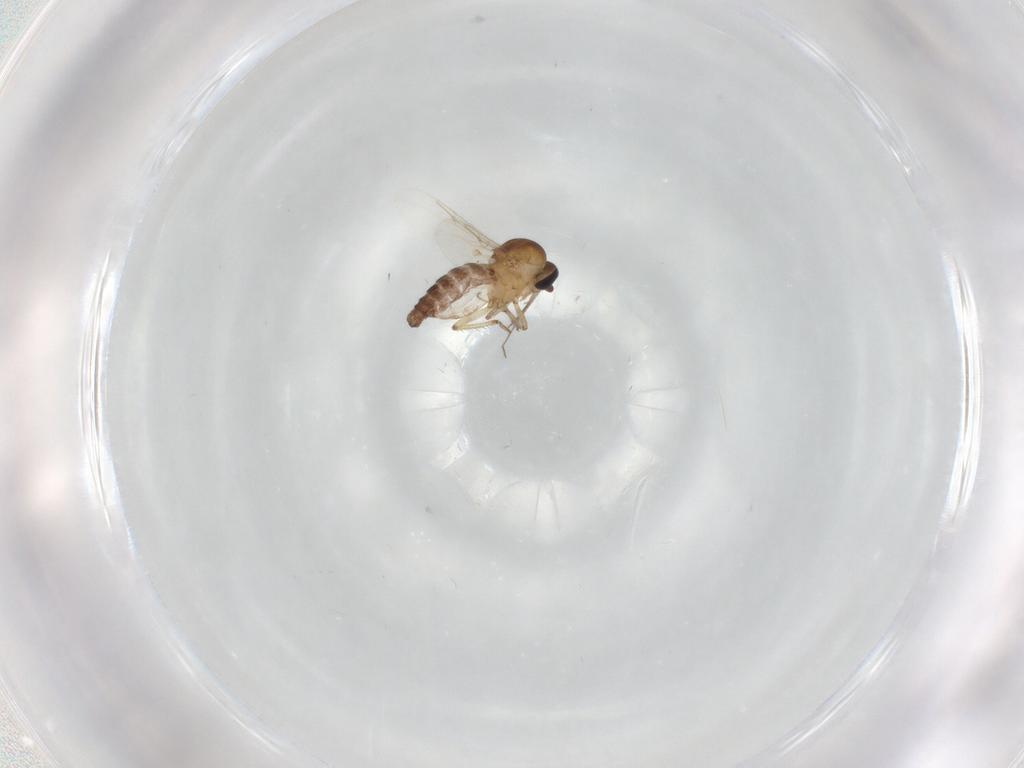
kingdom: Animalia
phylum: Arthropoda
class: Insecta
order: Diptera
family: Ceratopogonidae
